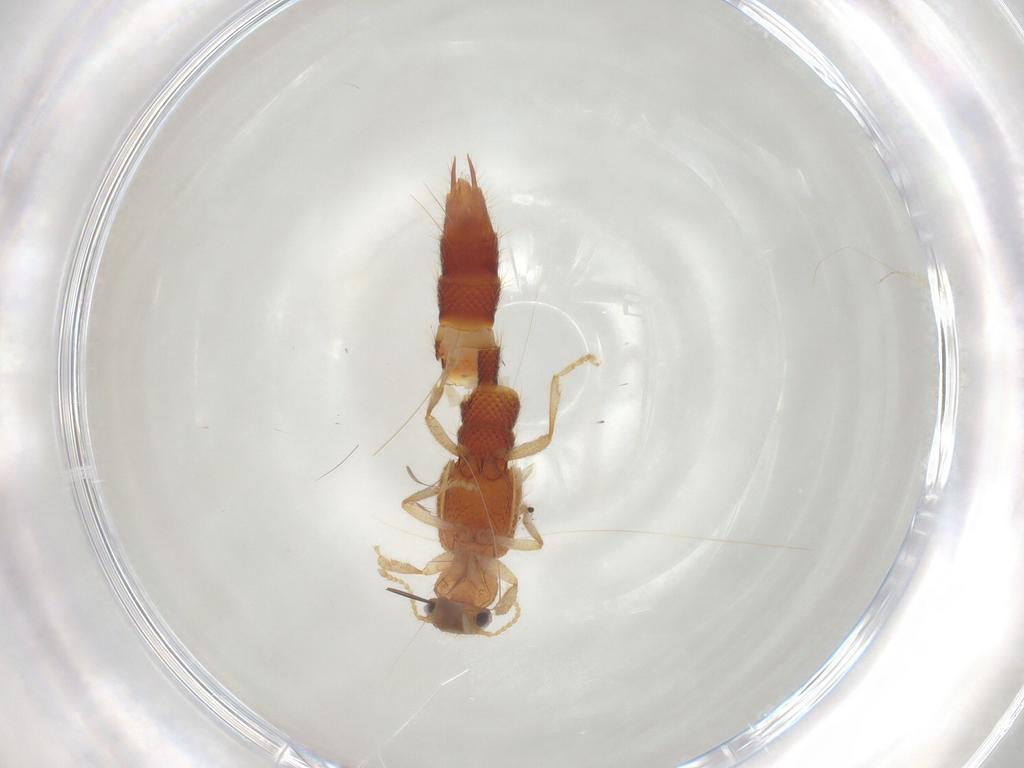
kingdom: Animalia
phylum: Arthropoda
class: Insecta
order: Coleoptera
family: Staphylinidae
